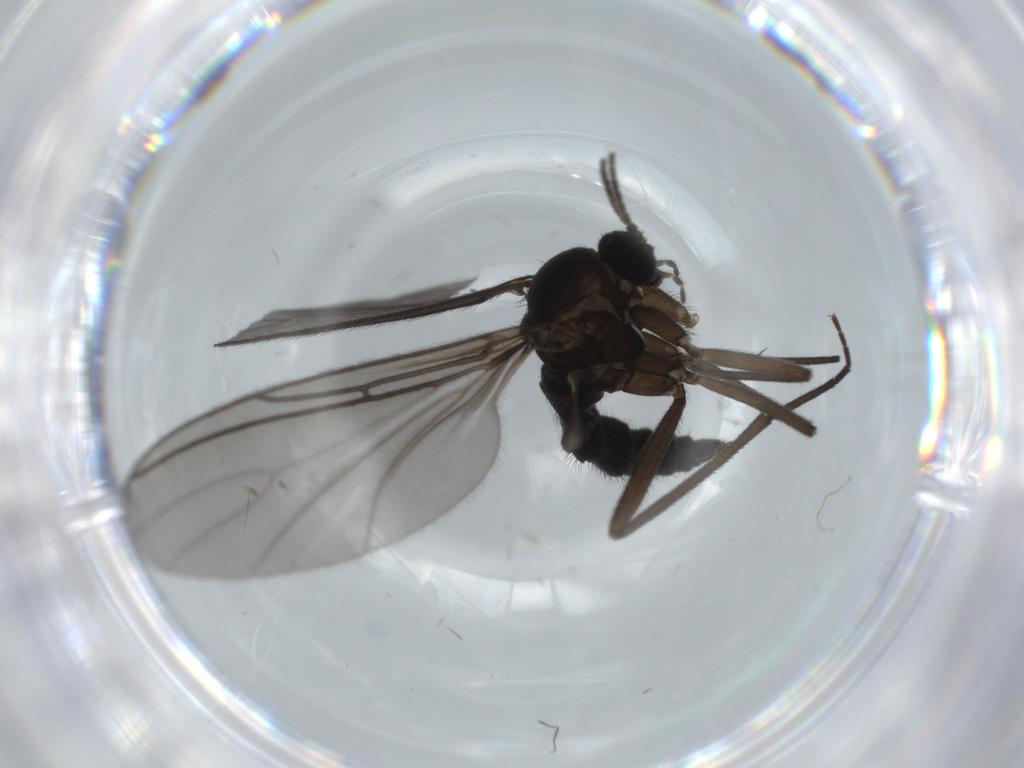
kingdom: Animalia
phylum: Arthropoda
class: Insecta
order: Diptera
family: Sciaridae
